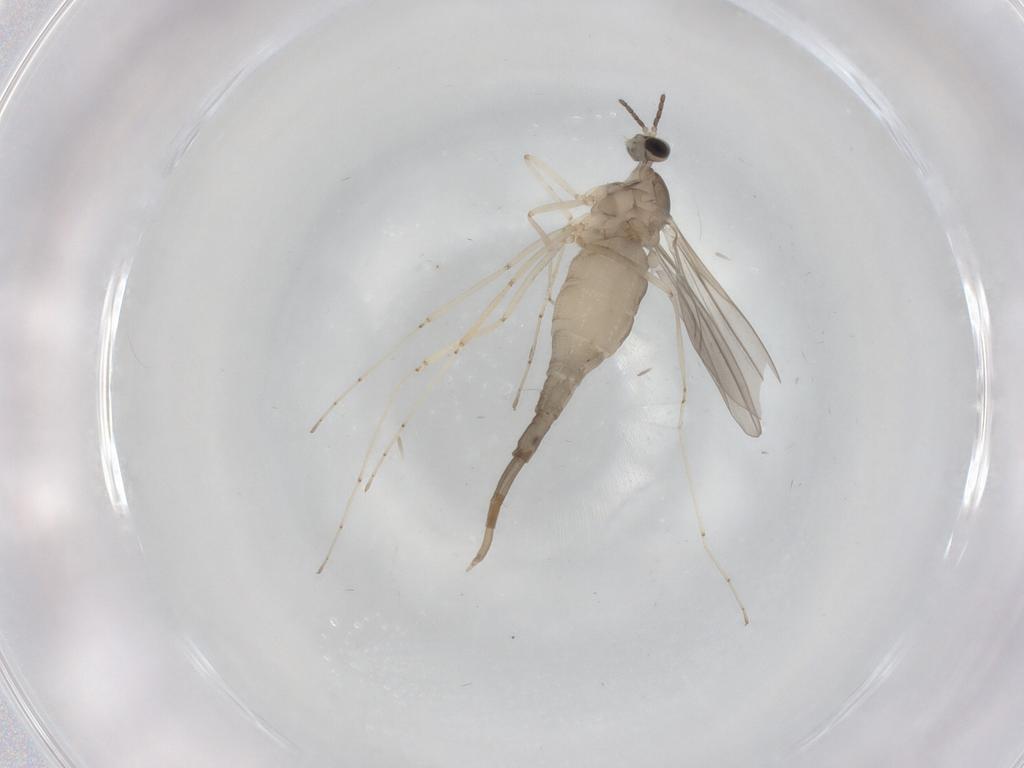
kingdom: Animalia
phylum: Arthropoda
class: Insecta
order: Diptera
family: Cecidomyiidae
